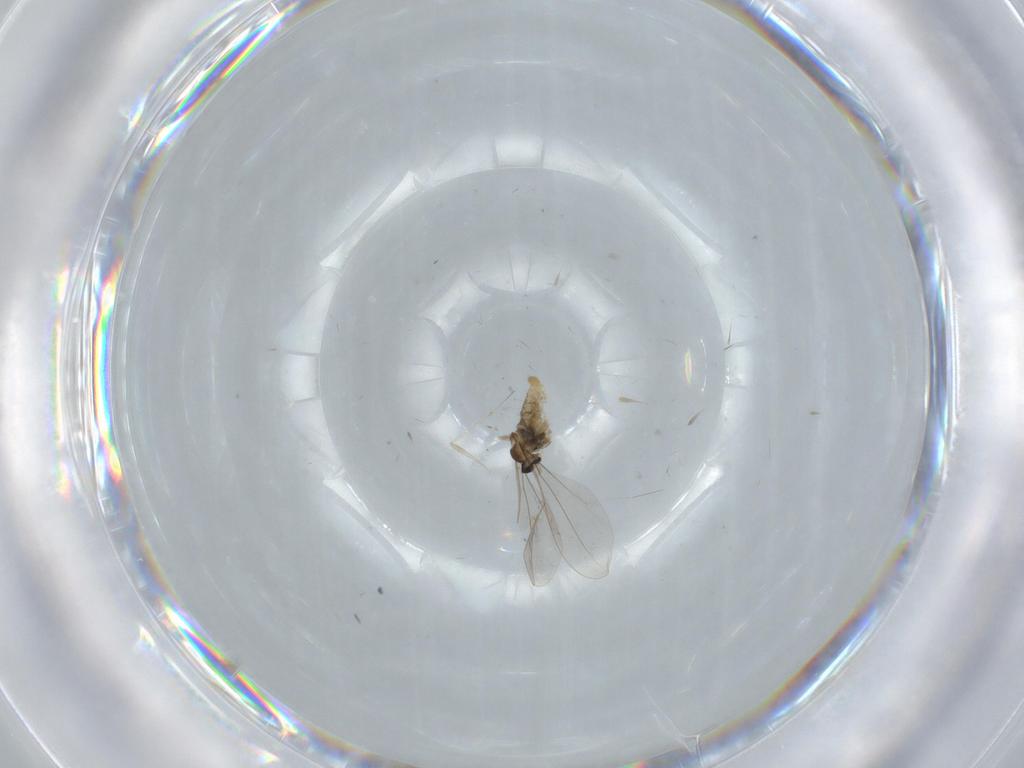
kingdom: Animalia
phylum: Arthropoda
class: Insecta
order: Diptera
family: Cecidomyiidae
